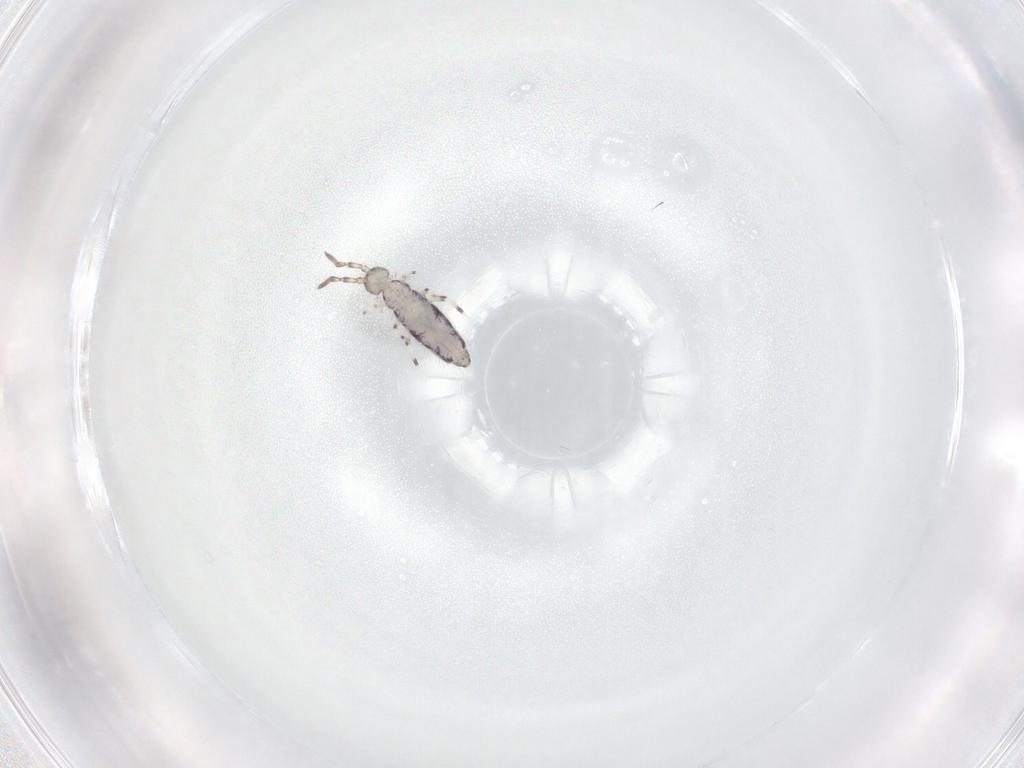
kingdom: Animalia
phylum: Arthropoda
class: Collembola
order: Entomobryomorpha
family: Entomobryidae
